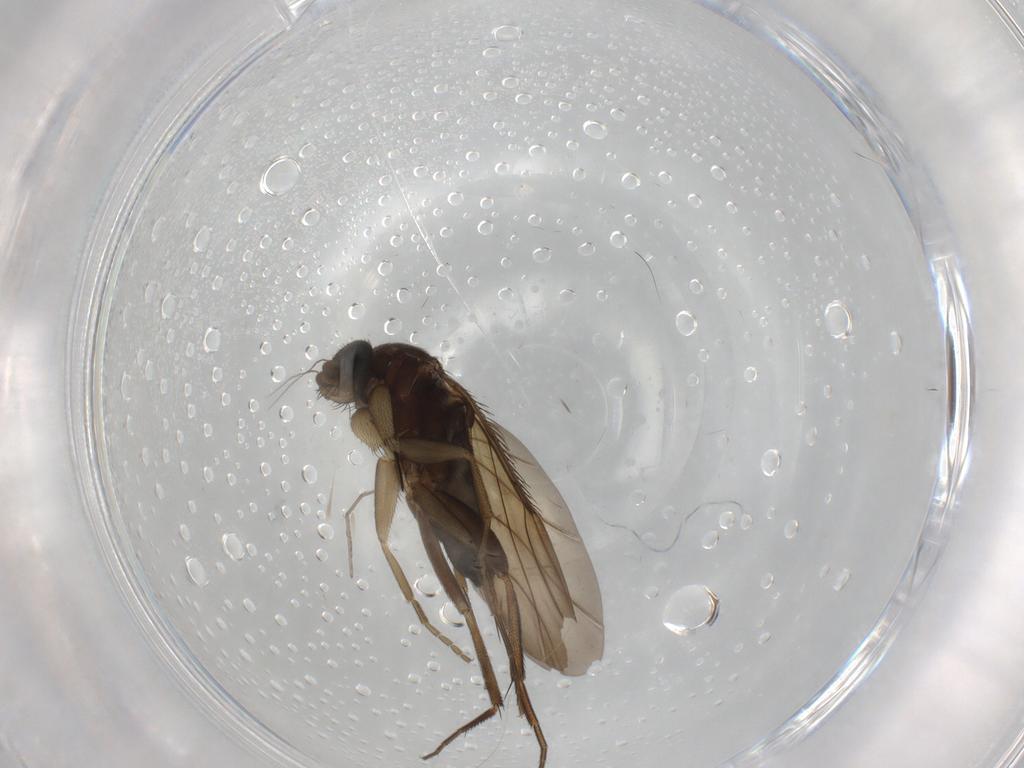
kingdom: Animalia
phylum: Arthropoda
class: Insecta
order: Diptera
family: Phoridae
